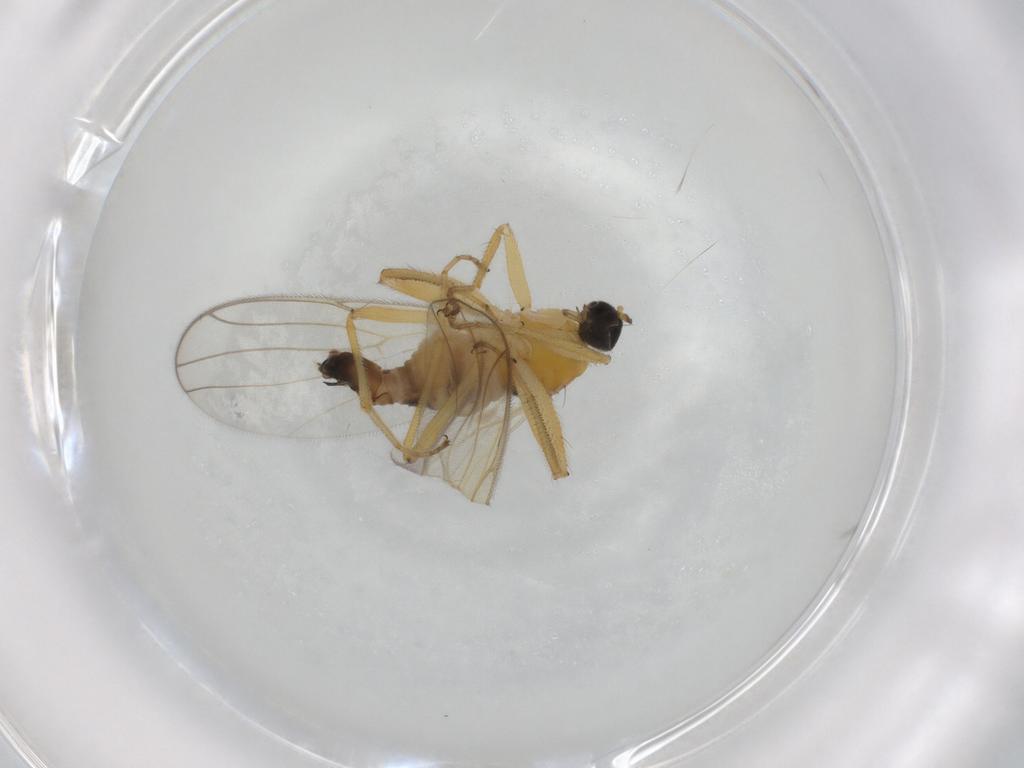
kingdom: Animalia
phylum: Arthropoda
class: Insecta
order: Diptera
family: Hybotidae
